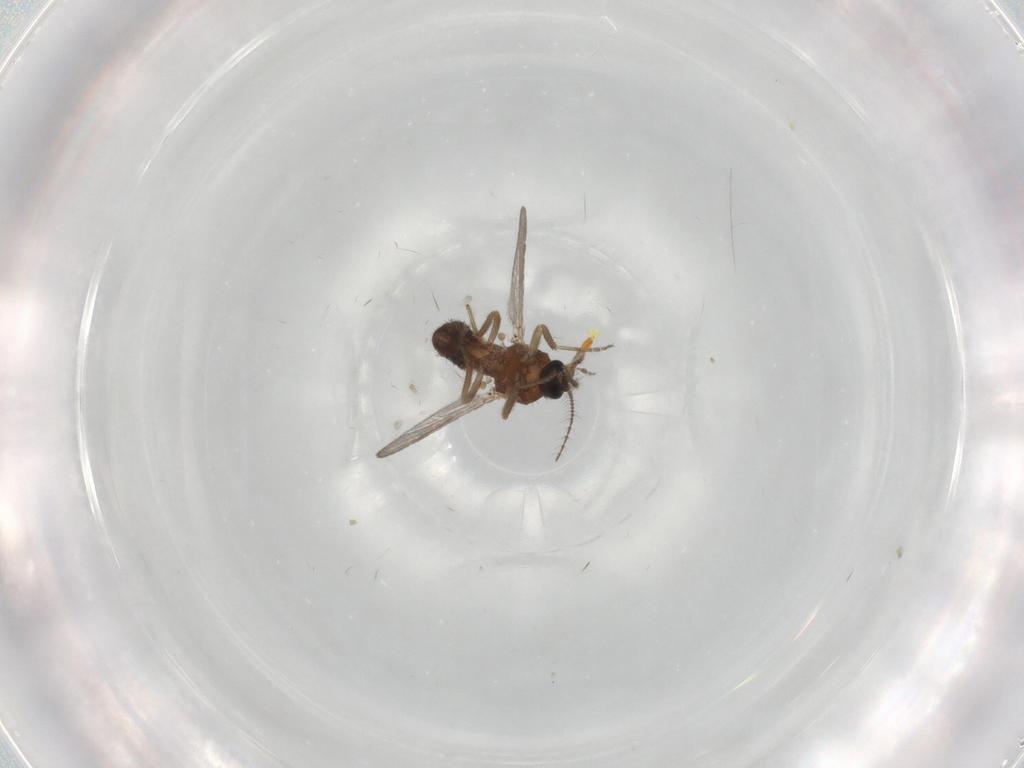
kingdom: Animalia
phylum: Arthropoda
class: Insecta
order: Diptera
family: Ceratopogonidae
